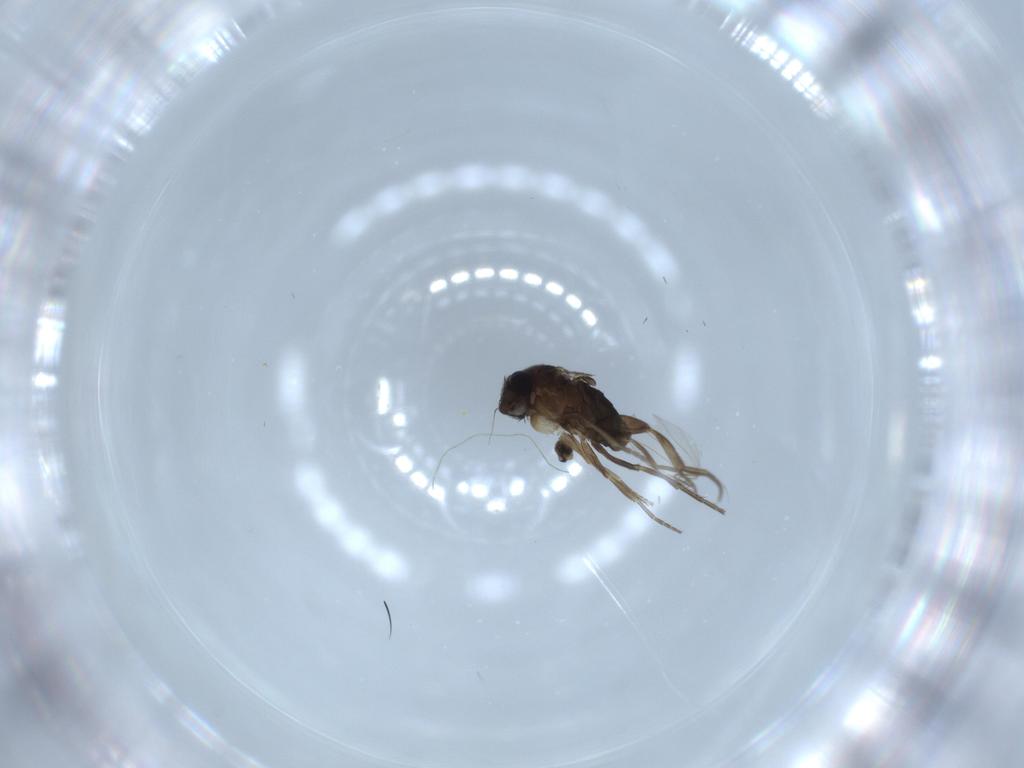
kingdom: Animalia
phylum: Arthropoda
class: Insecta
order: Diptera
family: Phoridae
